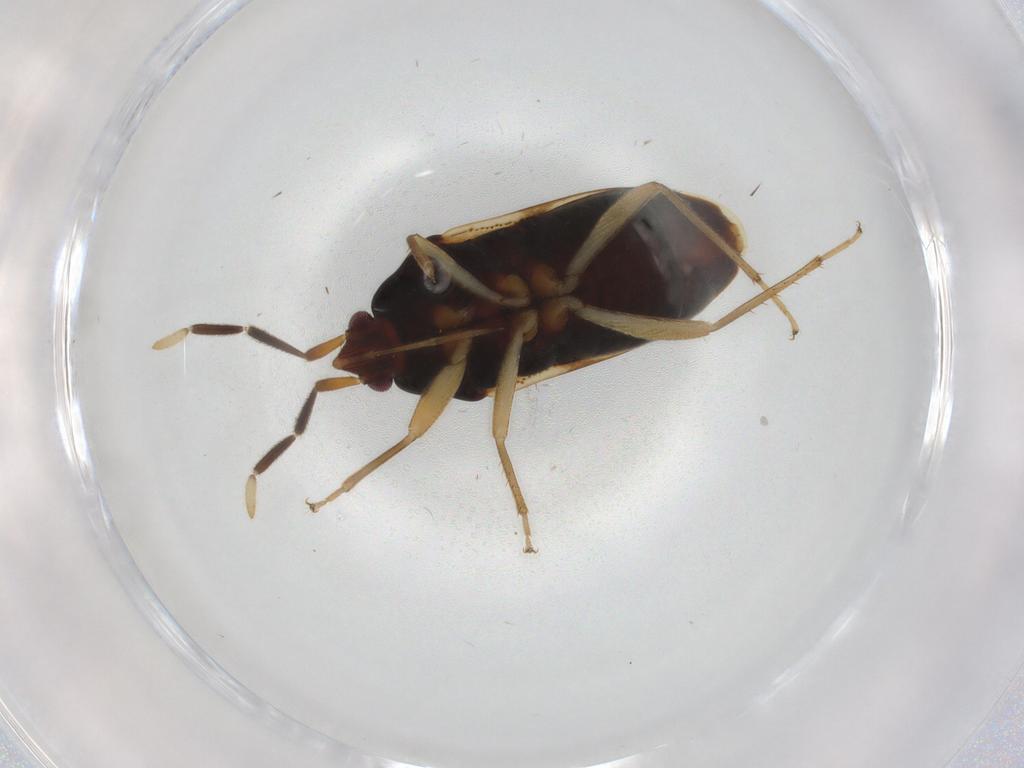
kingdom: Animalia
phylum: Arthropoda
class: Insecta
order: Hemiptera
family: Rhyparochromidae
